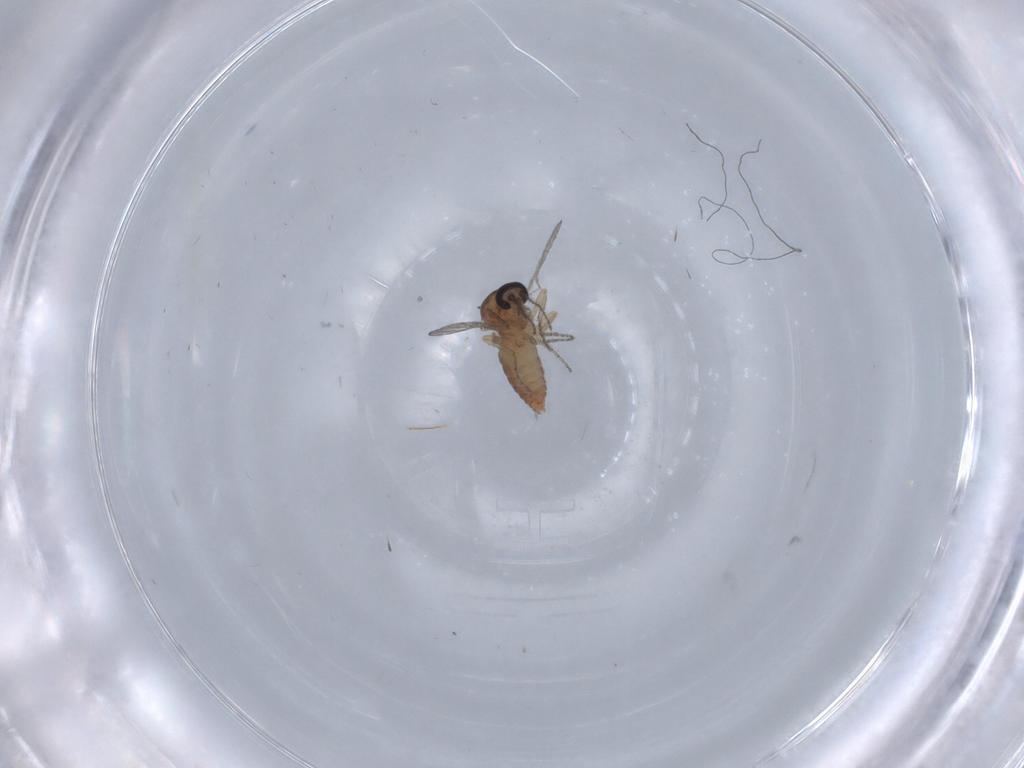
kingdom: Animalia
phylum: Arthropoda
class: Insecta
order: Diptera
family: Ceratopogonidae
